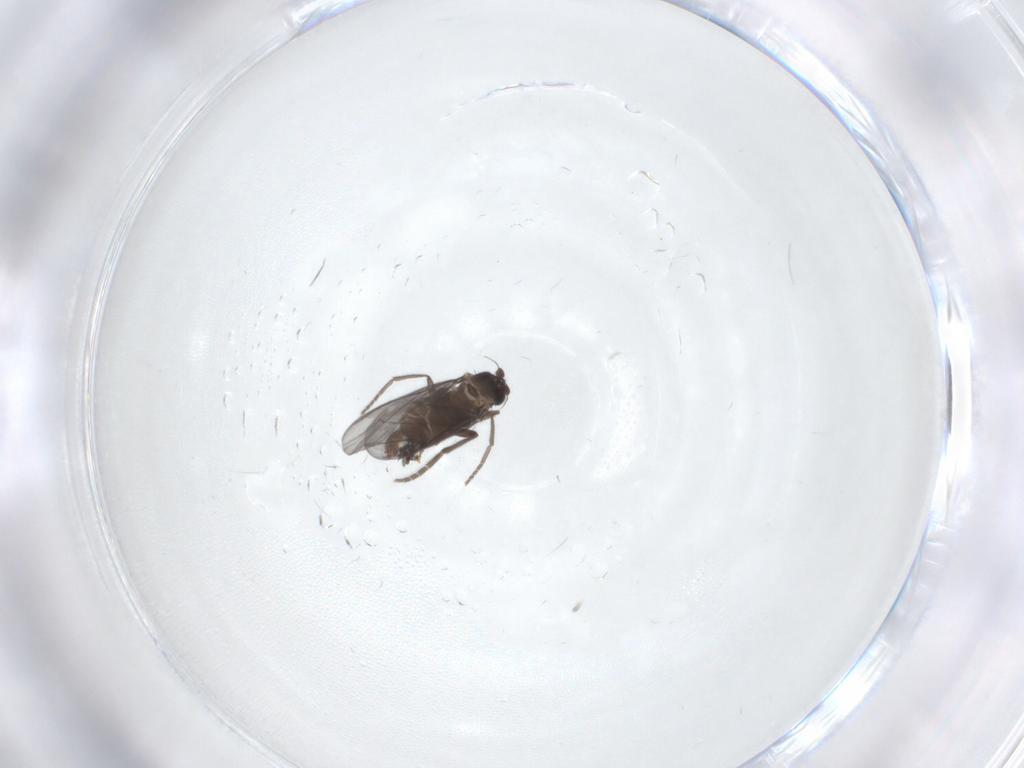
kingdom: Animalia
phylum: Arthropoda
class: Insecta
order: Diptera
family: Phoridae
